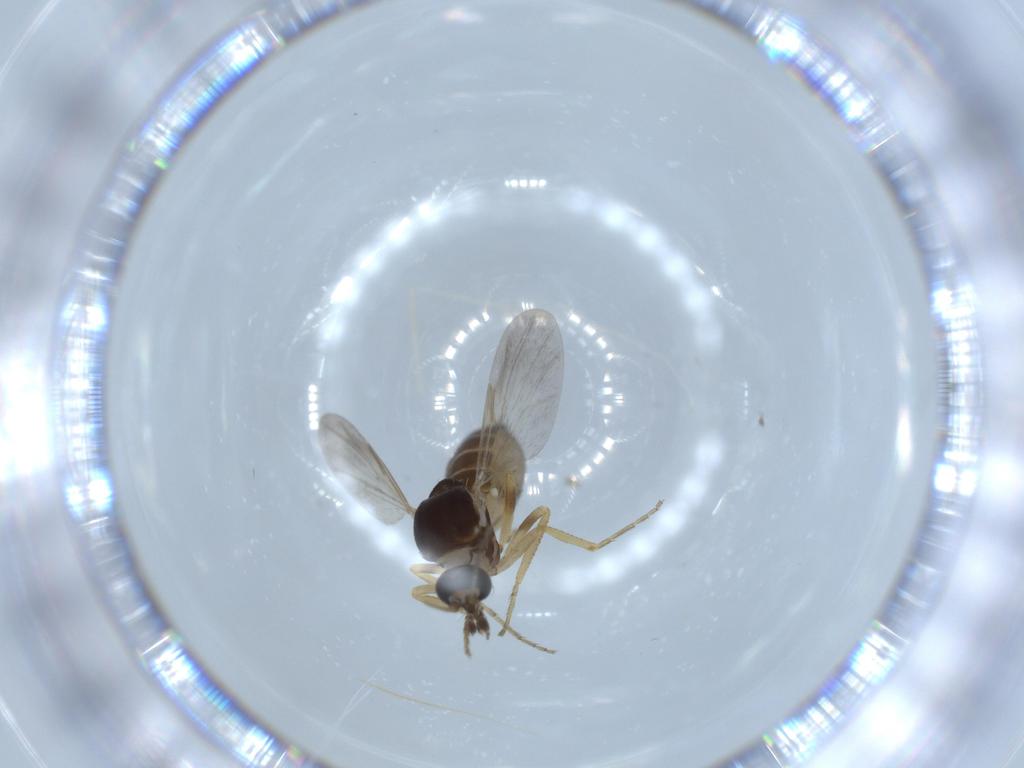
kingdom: Animalia
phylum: Arthropoda
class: Insecta
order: Diptera
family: Ceratopogonidae
